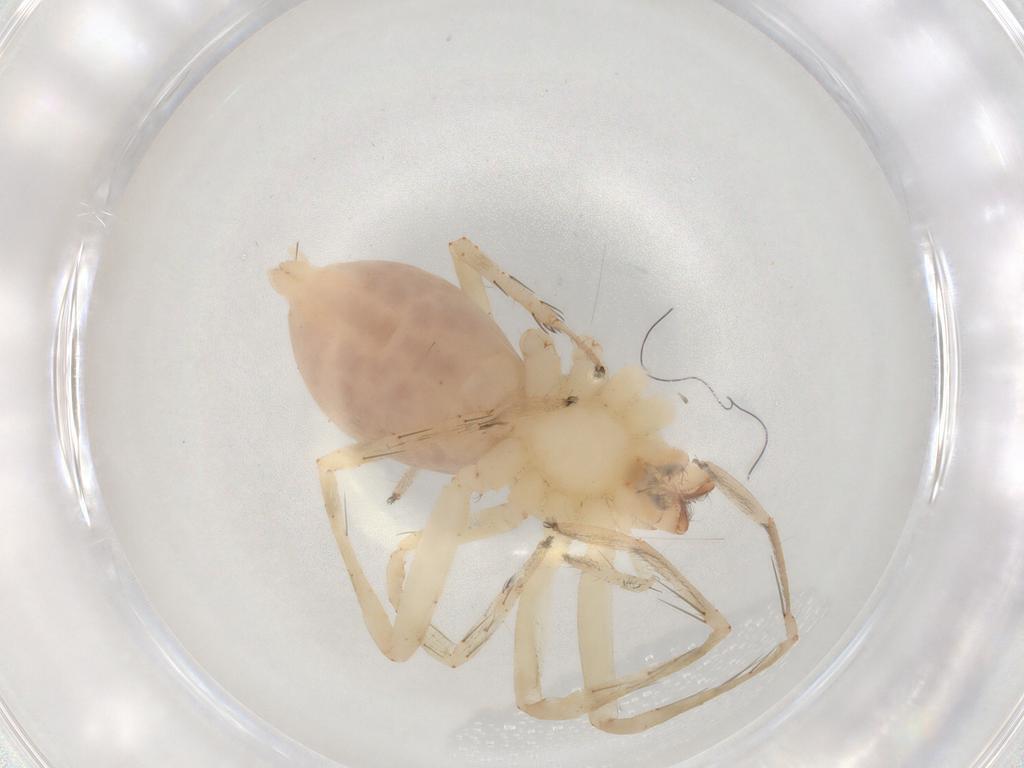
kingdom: Animalia
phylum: Arthropoda
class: Arachnida
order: Araneae
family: Anyphaenidae
